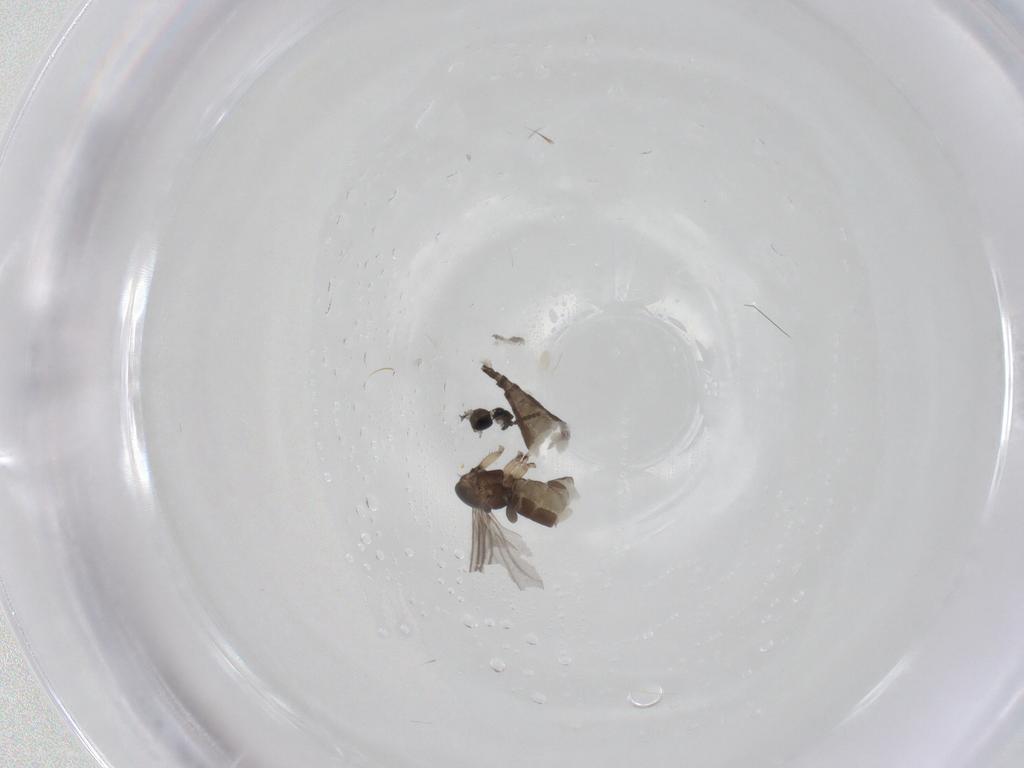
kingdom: Animalia
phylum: Arthropoda
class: Insecta
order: Diptera
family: Sciaridae
